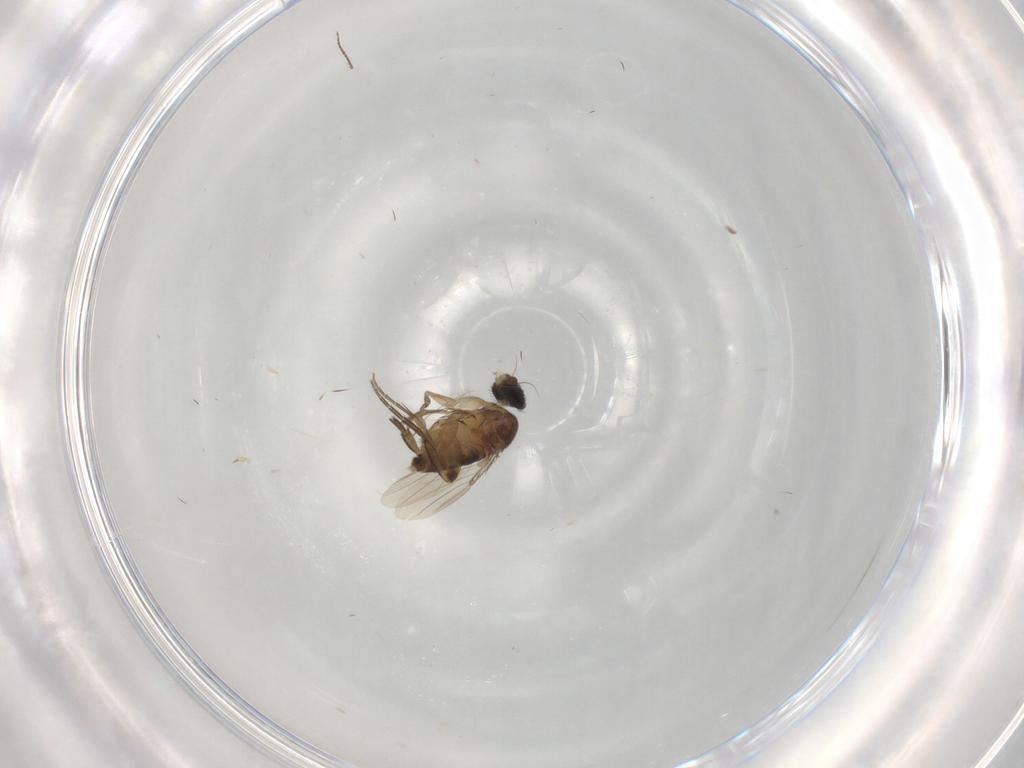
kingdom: Animalia
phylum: Arthropoda
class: Insecta
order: Diptera
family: Phoridae
